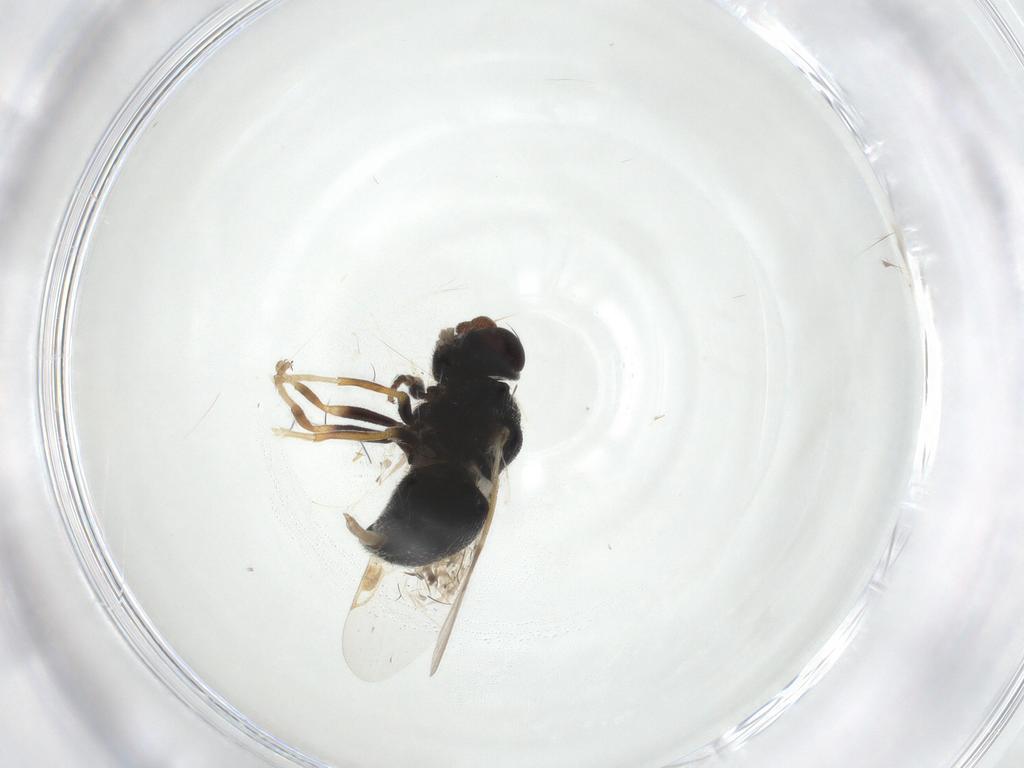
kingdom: Animalia
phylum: Arthropoda
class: Insecta
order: Diptera
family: Stratiomyidae
